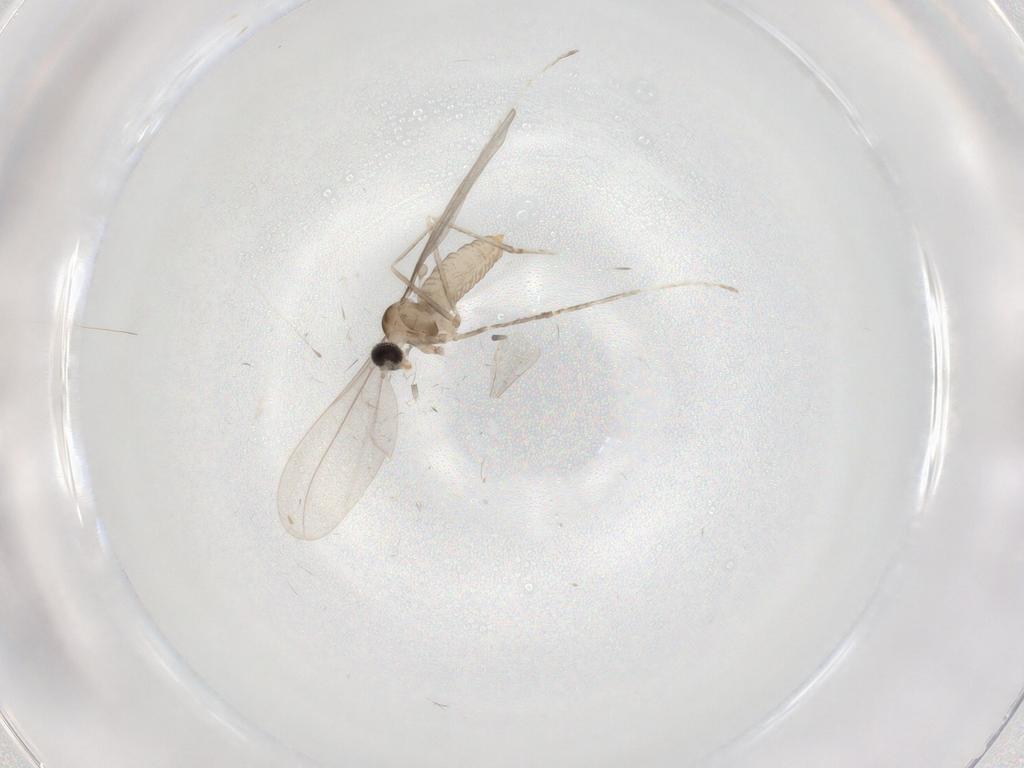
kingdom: Animalia
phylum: Arthropoda
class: Insecta
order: Diptera
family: Cecidomyiidae
